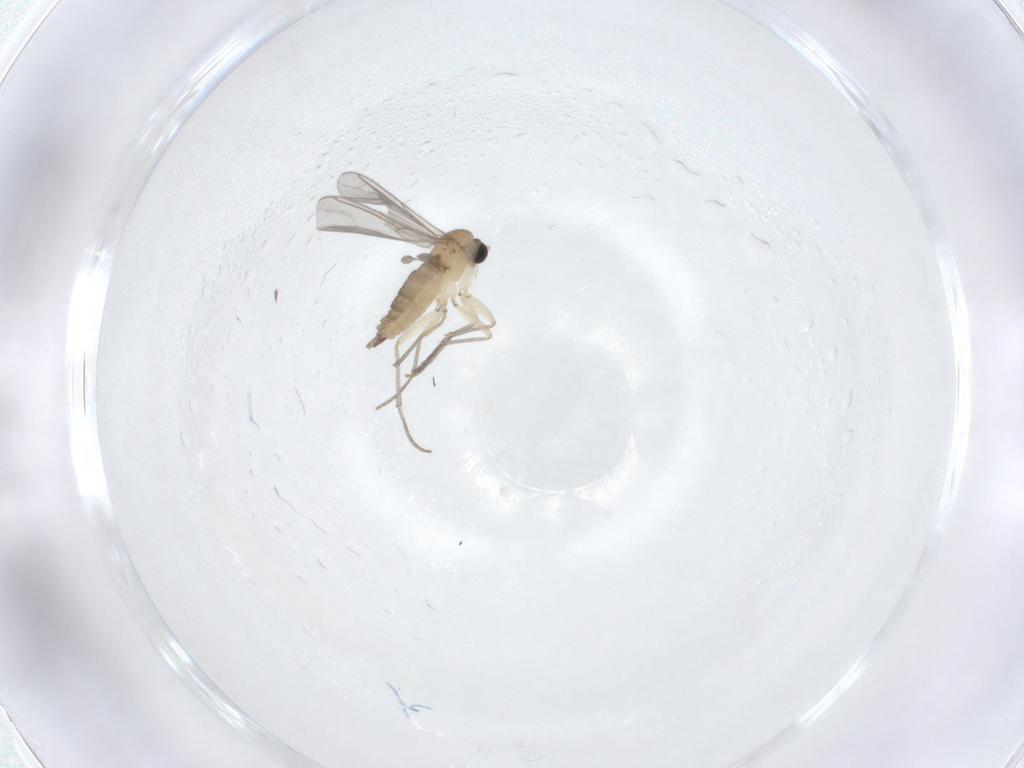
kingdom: Animalia
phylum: Arthropoda
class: Insecta
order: Diptera
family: Sciaridae
